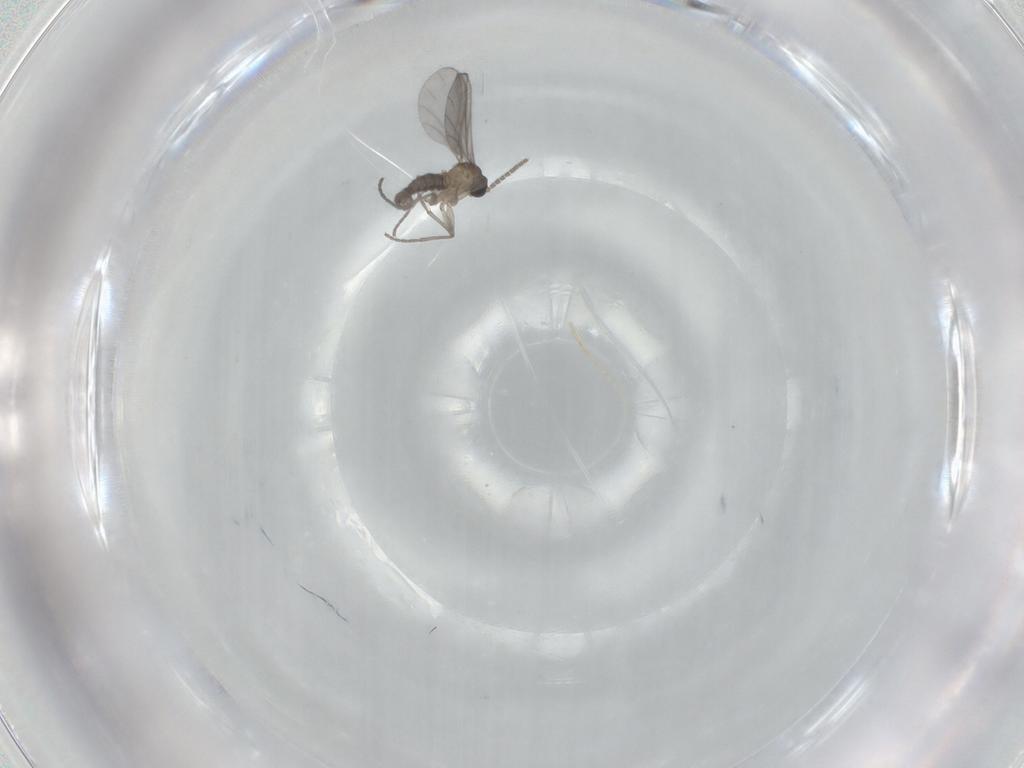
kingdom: Animalia
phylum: Arthropoda
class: Insecta
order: Diptera
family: Sciaridae
